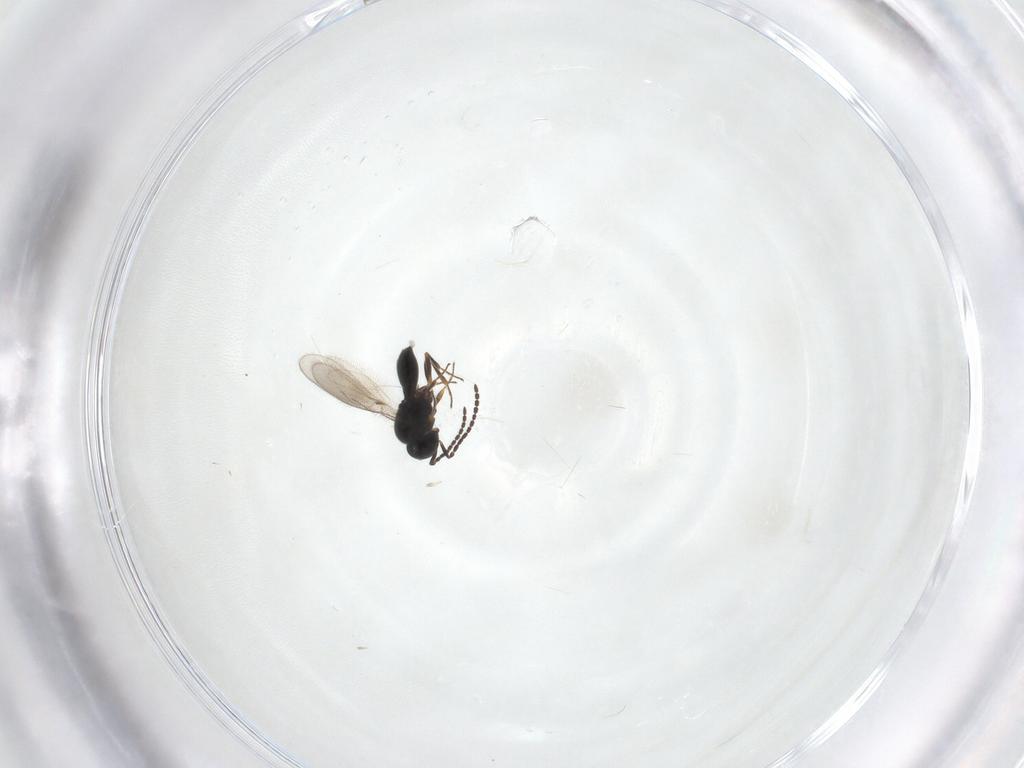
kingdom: Animalia
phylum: Arthropoda
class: Insecta
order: Hymenoptera
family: Scelionidae
